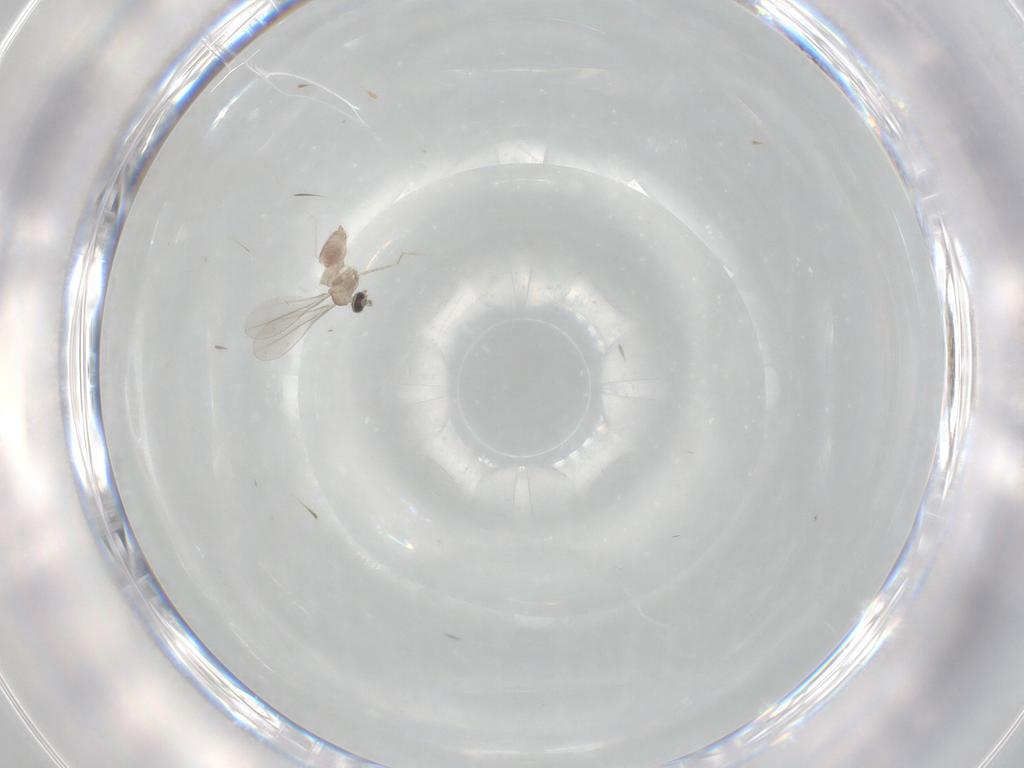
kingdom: Animalia
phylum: Arthropoda
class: Insecta
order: Diptera
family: Cecidomyiidae
